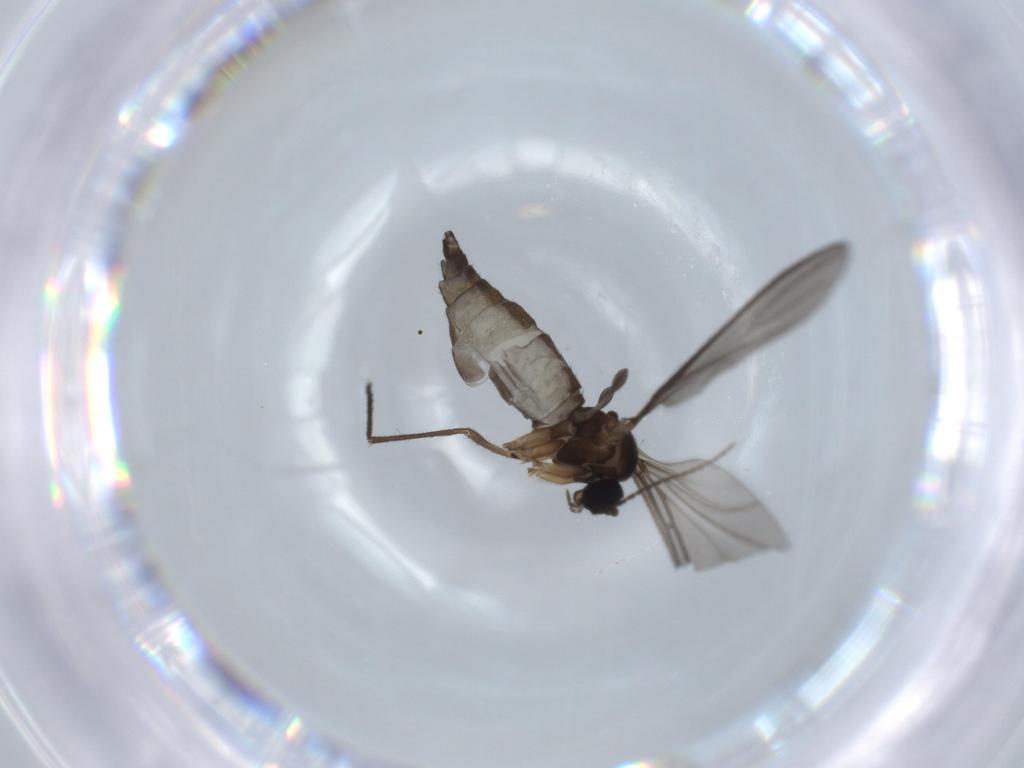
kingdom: Animalia
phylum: Arthropoda
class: Insecta
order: Diptera
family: Sciaridae
